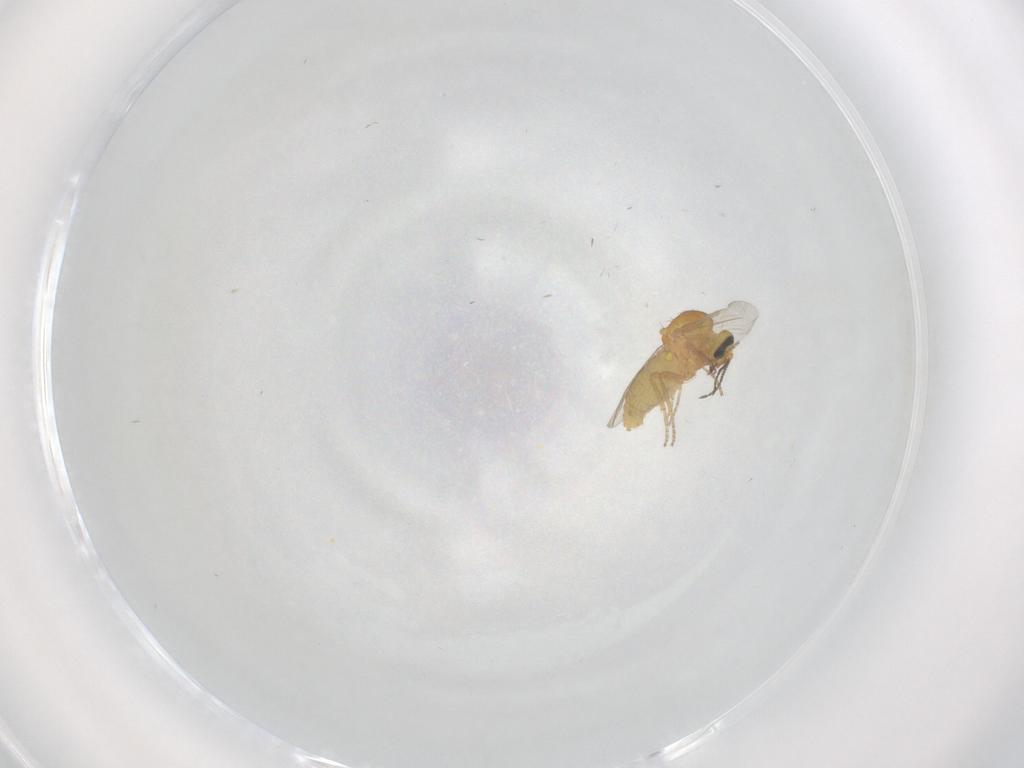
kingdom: Animalia
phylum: Arthropoda
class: Insecta
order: Diptera
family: Ceratopogonidae
